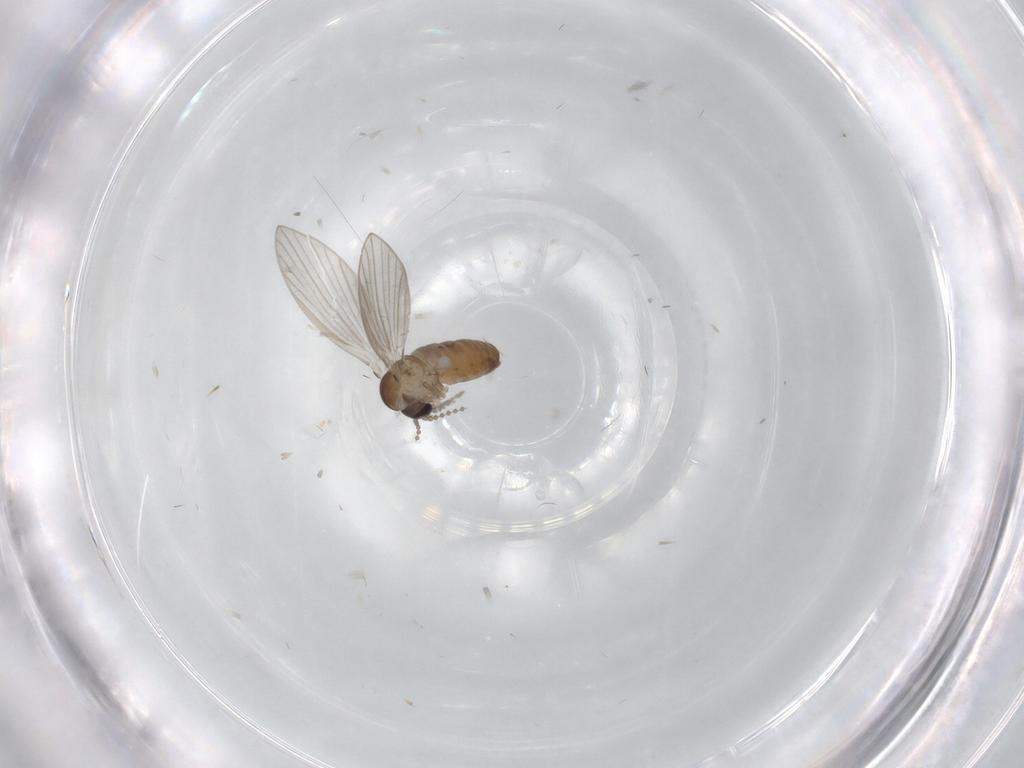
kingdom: Animalia
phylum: Arthropoda
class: Insecta
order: Diptera
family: Psychodidae
